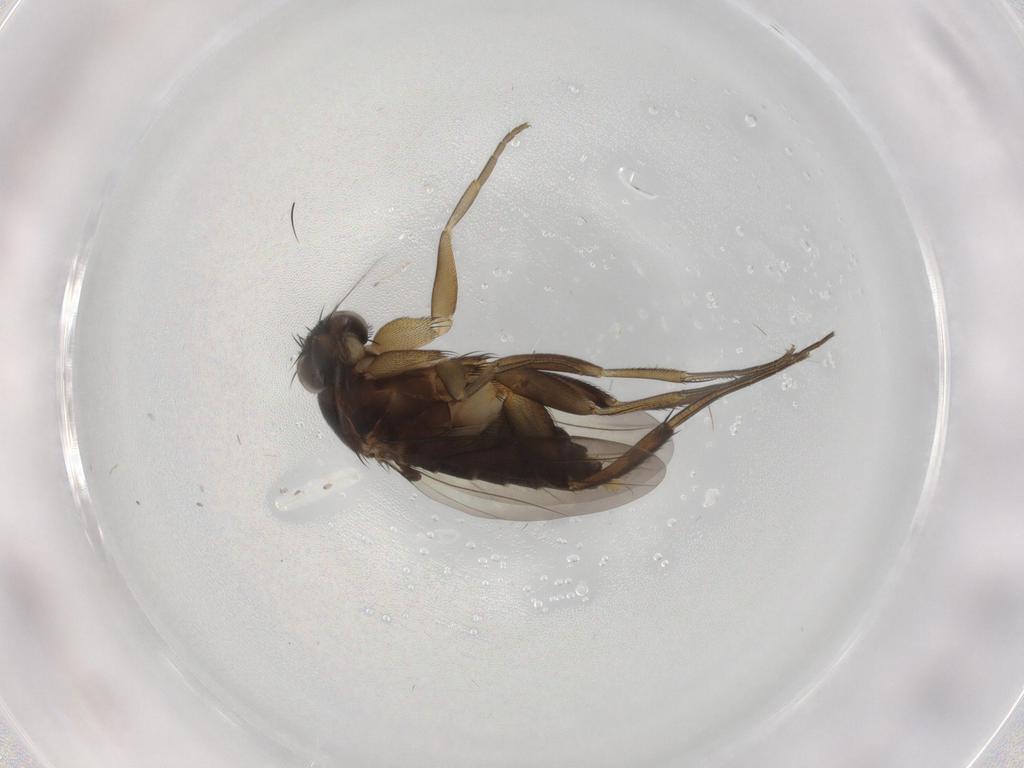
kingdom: Animalia
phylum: Arthropoda
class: Insecta
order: Diptera
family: Phoridae
